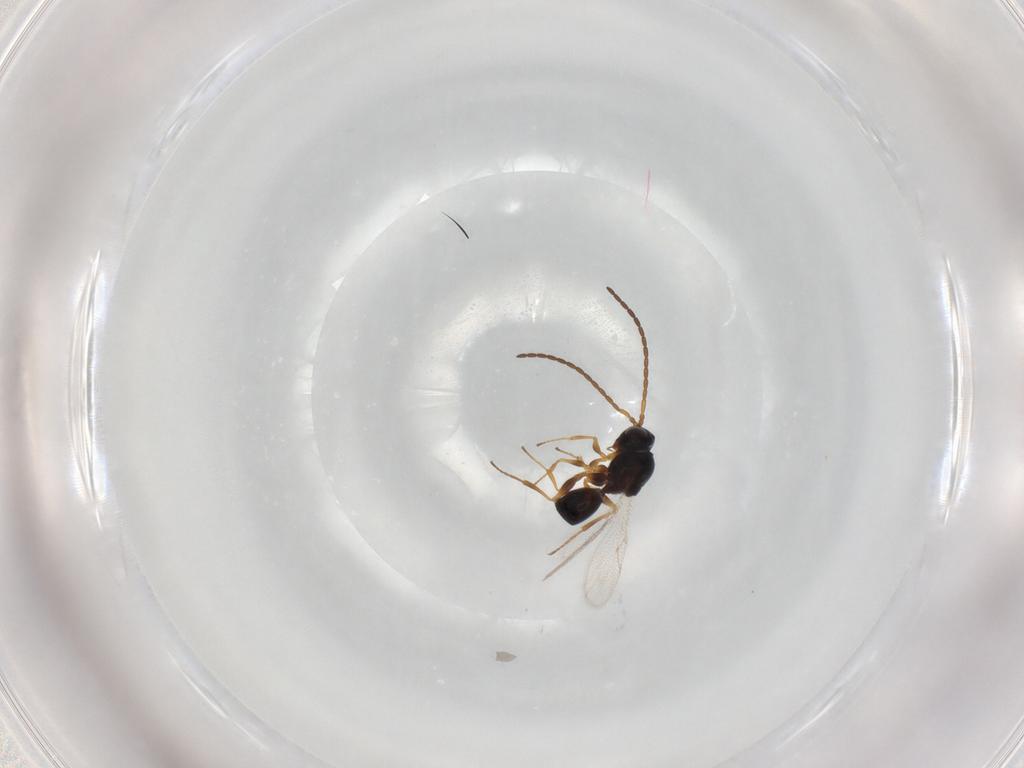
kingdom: Animalia
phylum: Arthropoda
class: Insecta
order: Hymenoptera
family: Figitidae
